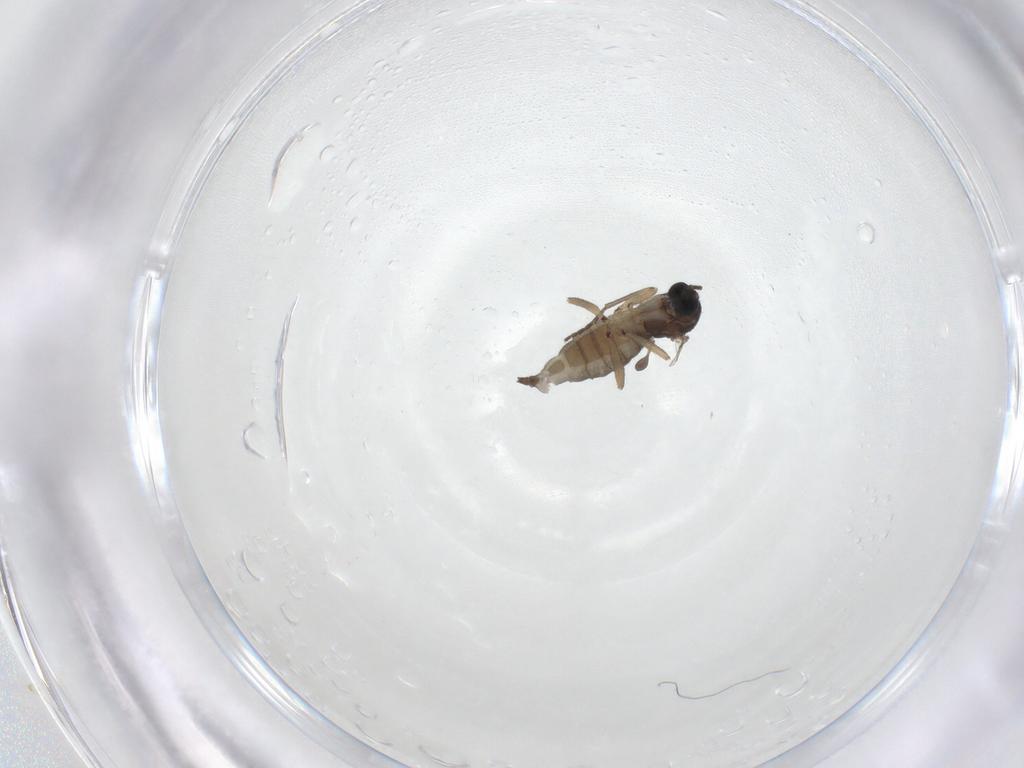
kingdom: Animalia
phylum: Arthropoda
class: Insecta
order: Diptera
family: Sciaridae
